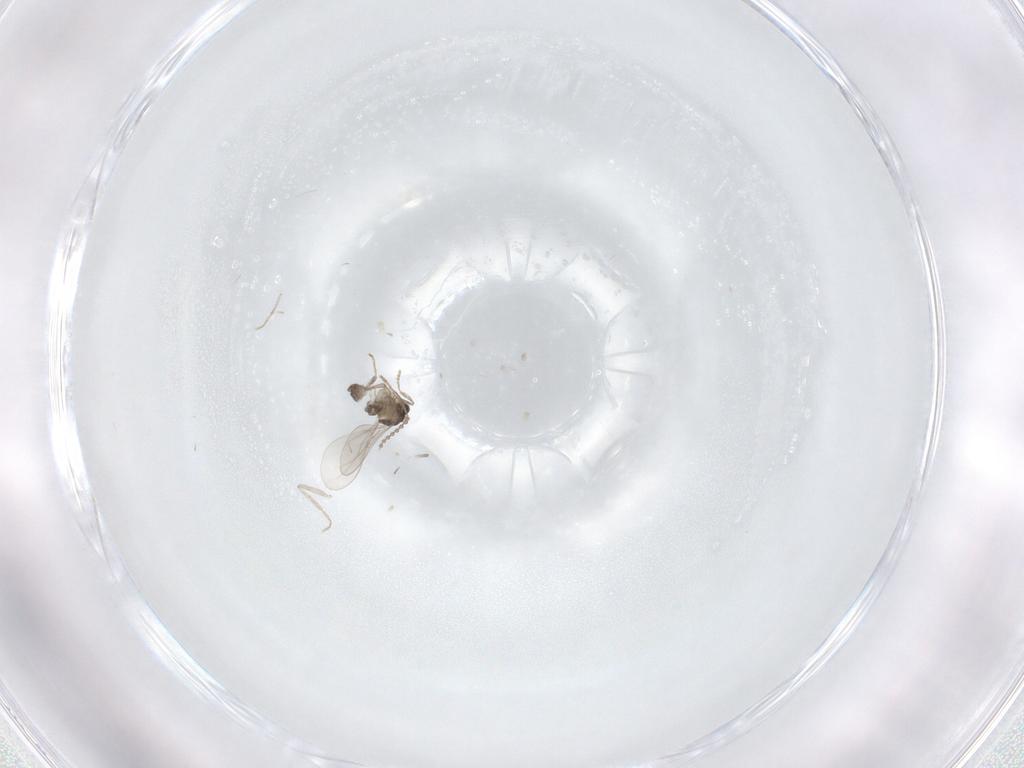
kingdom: Animalia
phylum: Arthropoda
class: Insecta
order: Diptera
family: Cecidomyiidae
